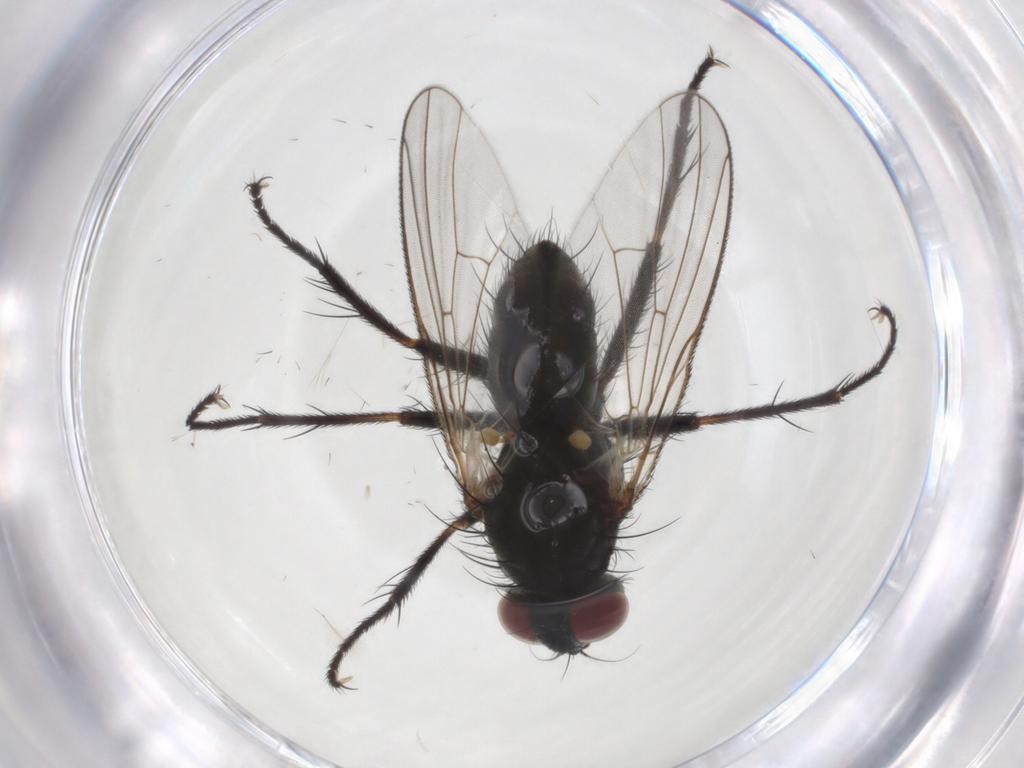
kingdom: Animalia
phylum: Arthropoda
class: Insecta
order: Diptera
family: Muscidae
